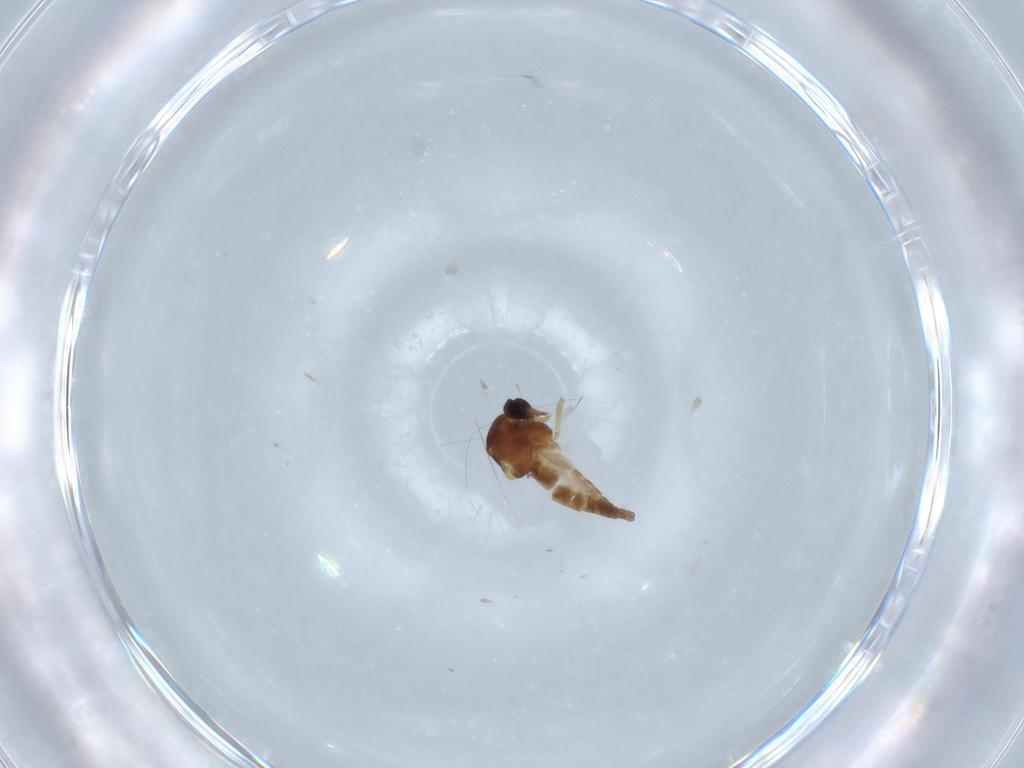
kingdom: Animalia
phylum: Arthropoda
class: Insecta
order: Diptera
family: Ceratopogonidae
